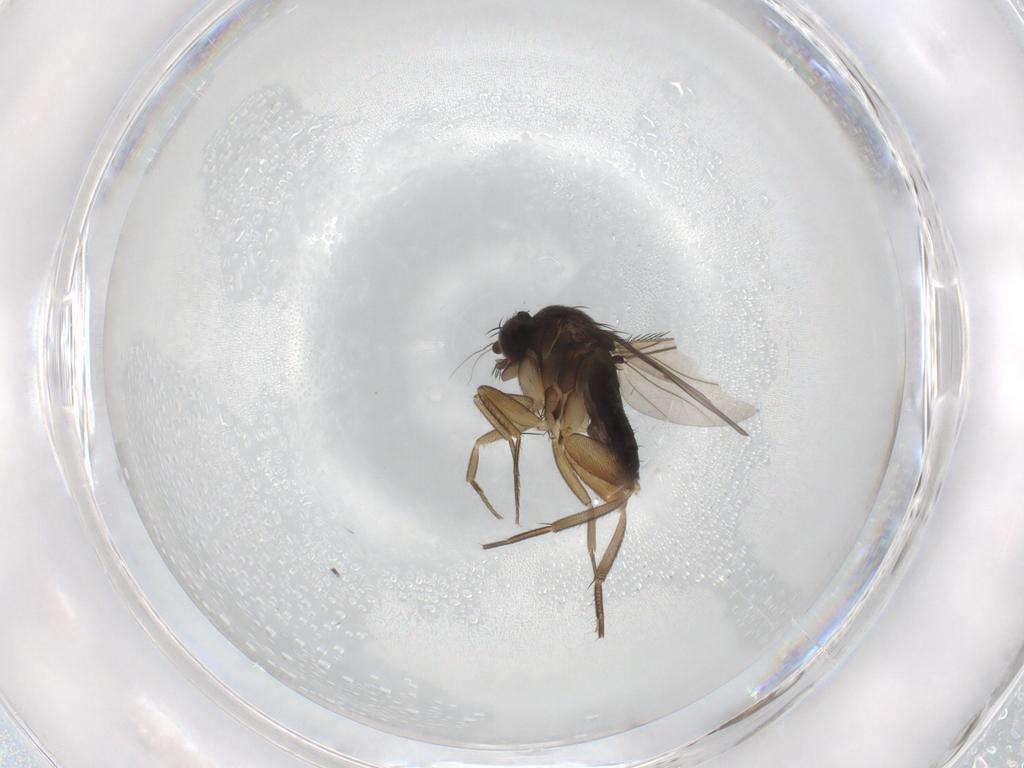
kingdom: Animalia
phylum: Arthropoda
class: Insecta
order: Diptera
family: Phoridae
